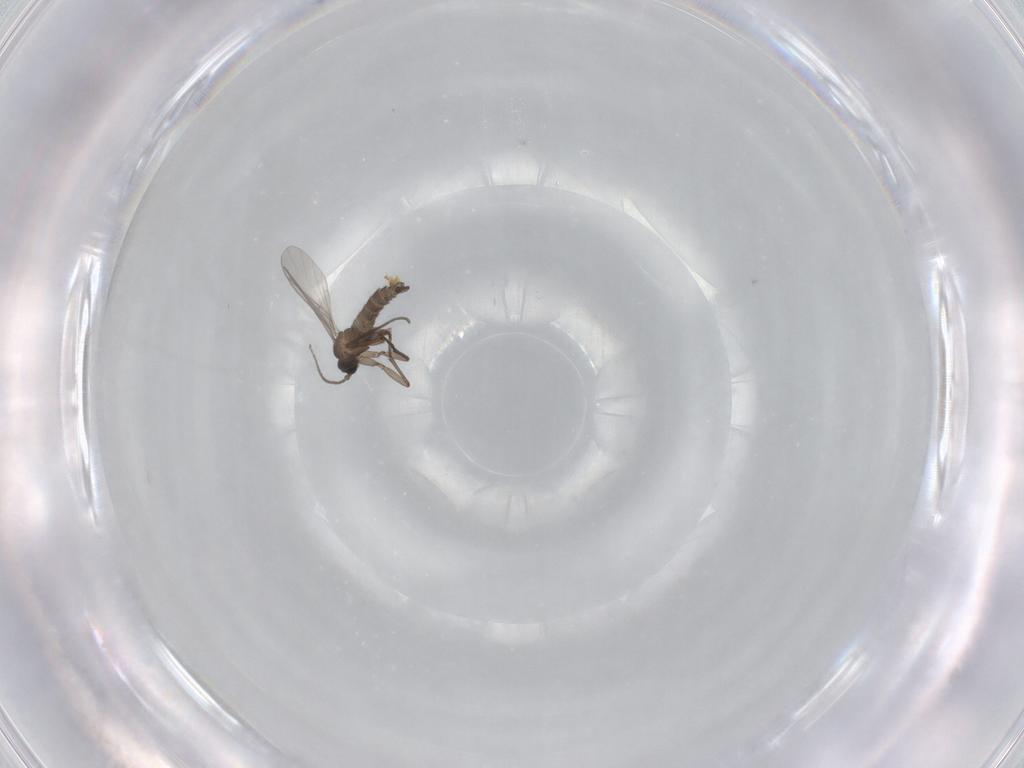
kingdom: Animalia
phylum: Arthropoda
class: Insecta
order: Diptera
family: Sciaridae
